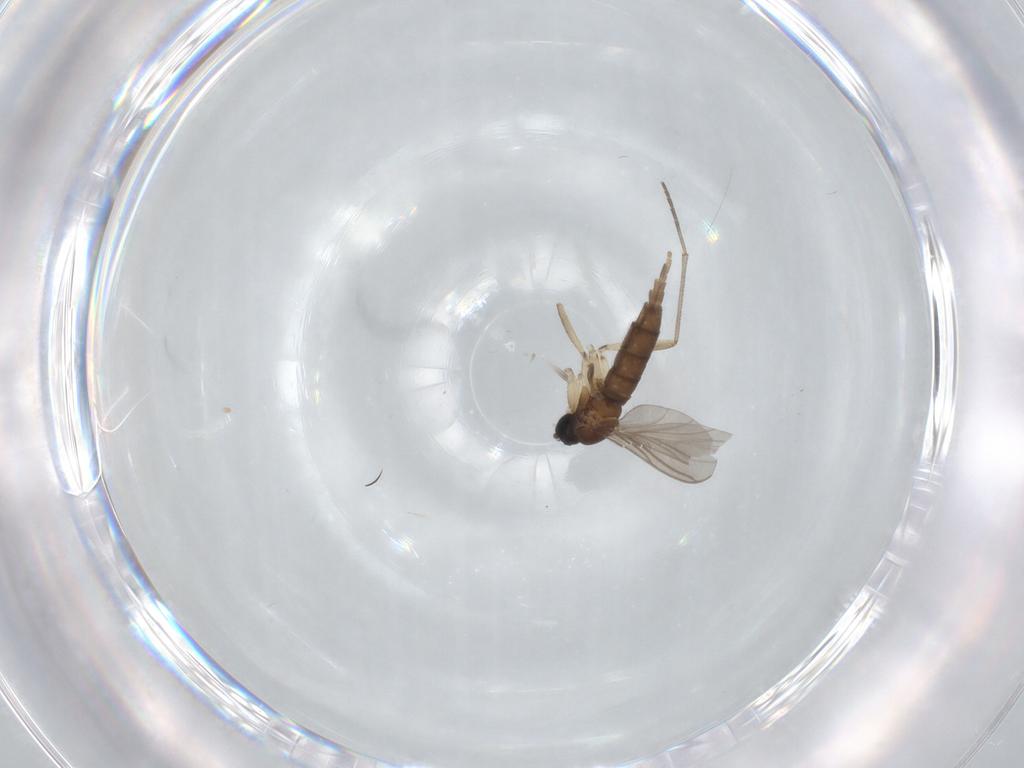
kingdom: Animalia
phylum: Arthropoda
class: Insecta
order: Diptera
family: Sciaridae
